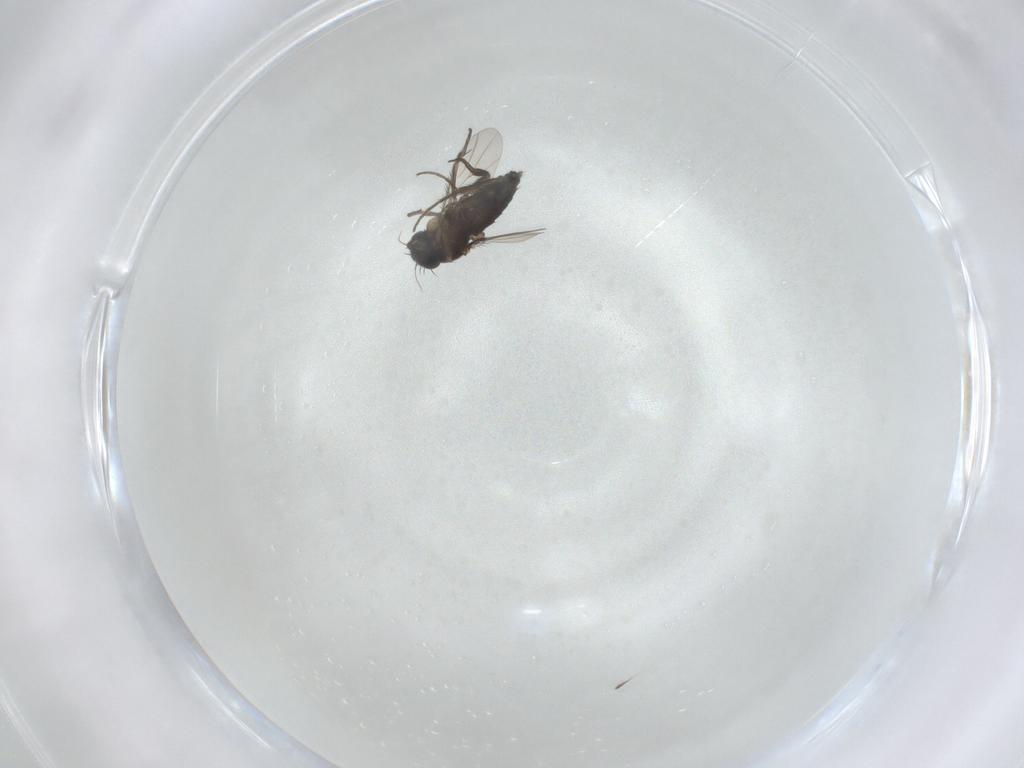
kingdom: Animalia
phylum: Arthropoda
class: Insecta
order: Diptera
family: Phoridae
